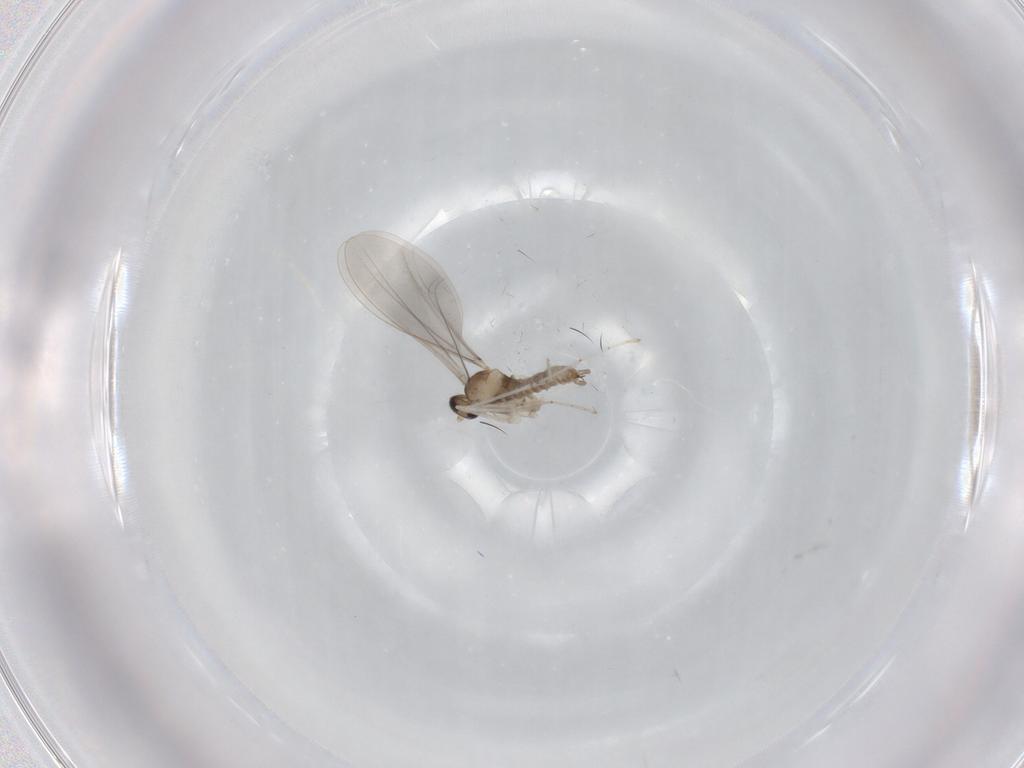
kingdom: Animalia
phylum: Arthropoda
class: Insecta
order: Diptera
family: Cecidomyiidae
